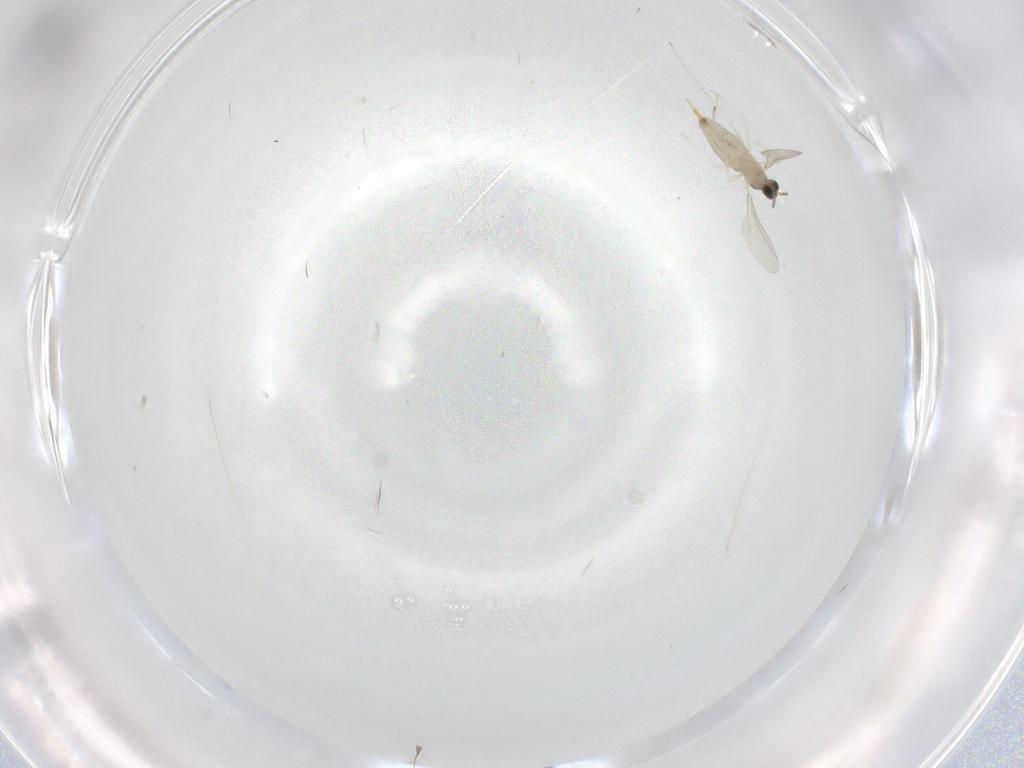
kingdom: Animalia
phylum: Arthropoda
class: Insecta
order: Diptera
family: Cecidomyiidae
